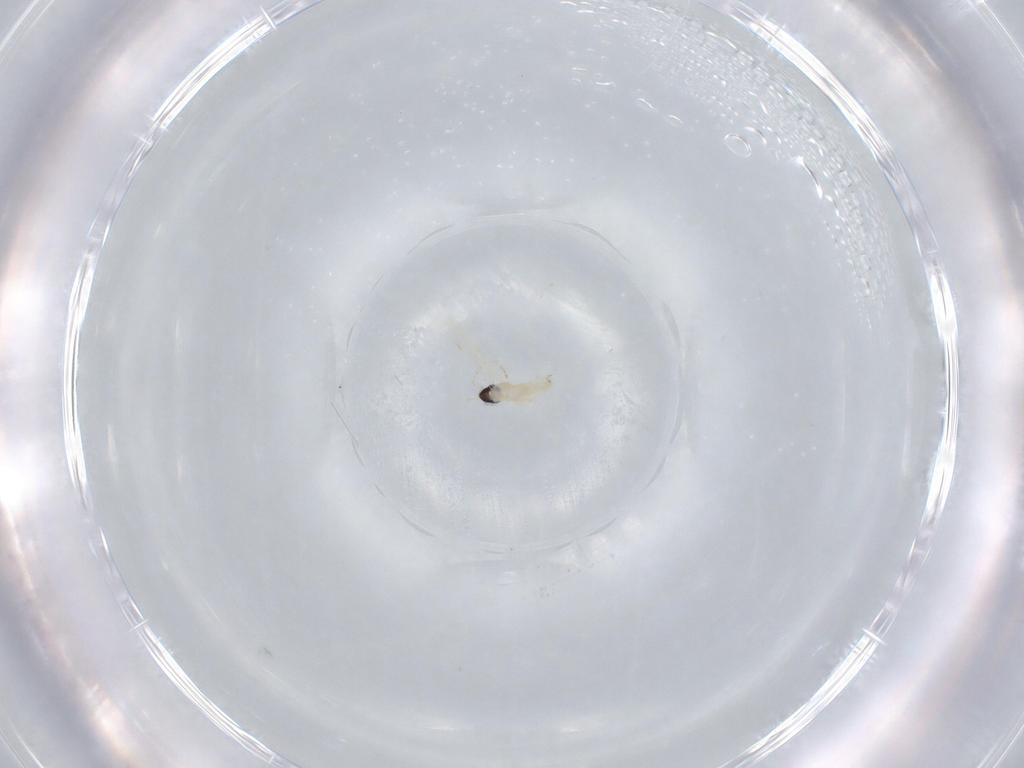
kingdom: Animalia
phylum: Arthropoda
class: Insecta
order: Diptera
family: Cecidomyiidae
